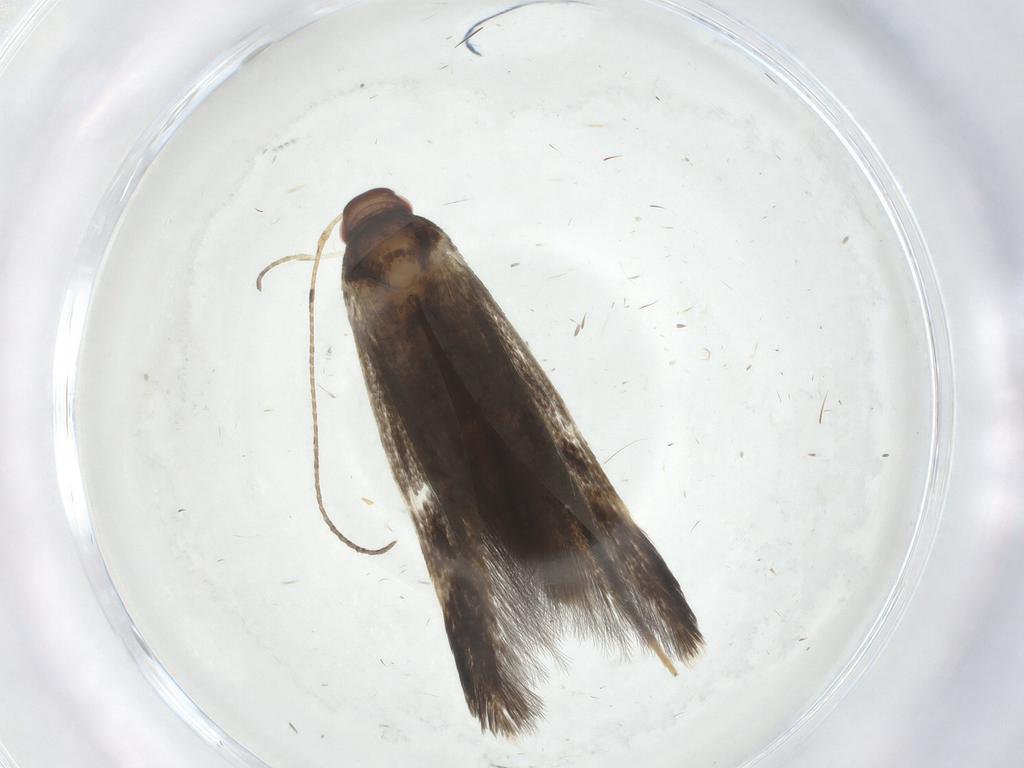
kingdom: Animalia
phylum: Arthropoda
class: Insecta
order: Lepidoptera
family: Gelechiidae
